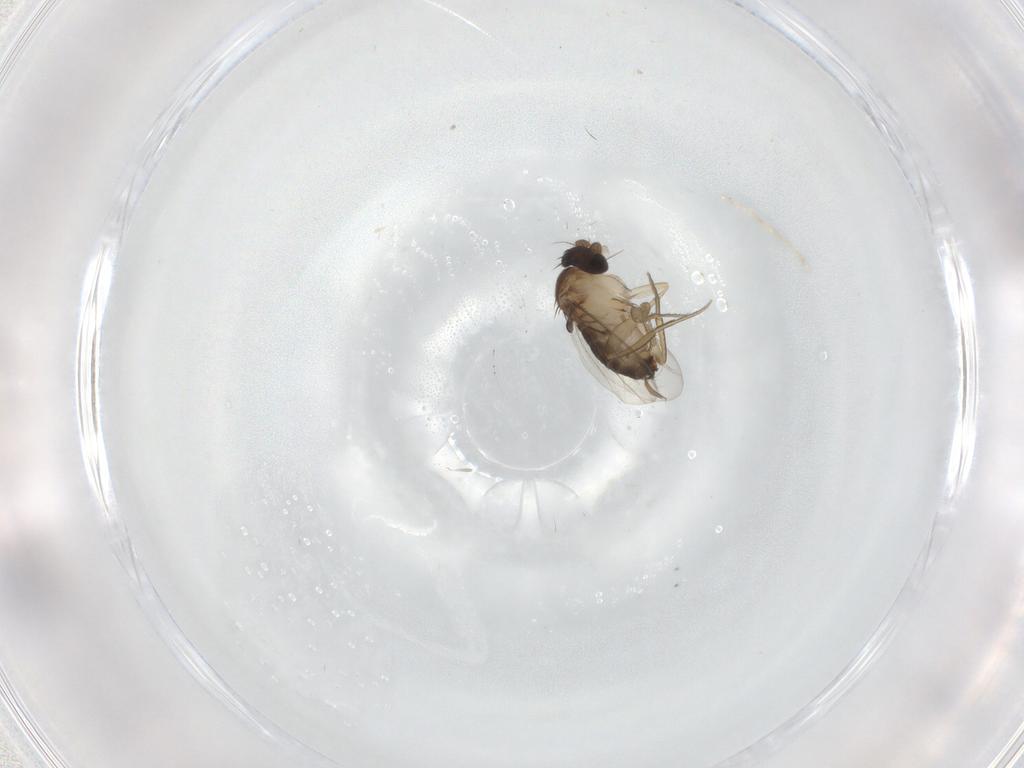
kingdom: Animalia
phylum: Arthropoda
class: Insecta
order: Diptera
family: Phoridae
